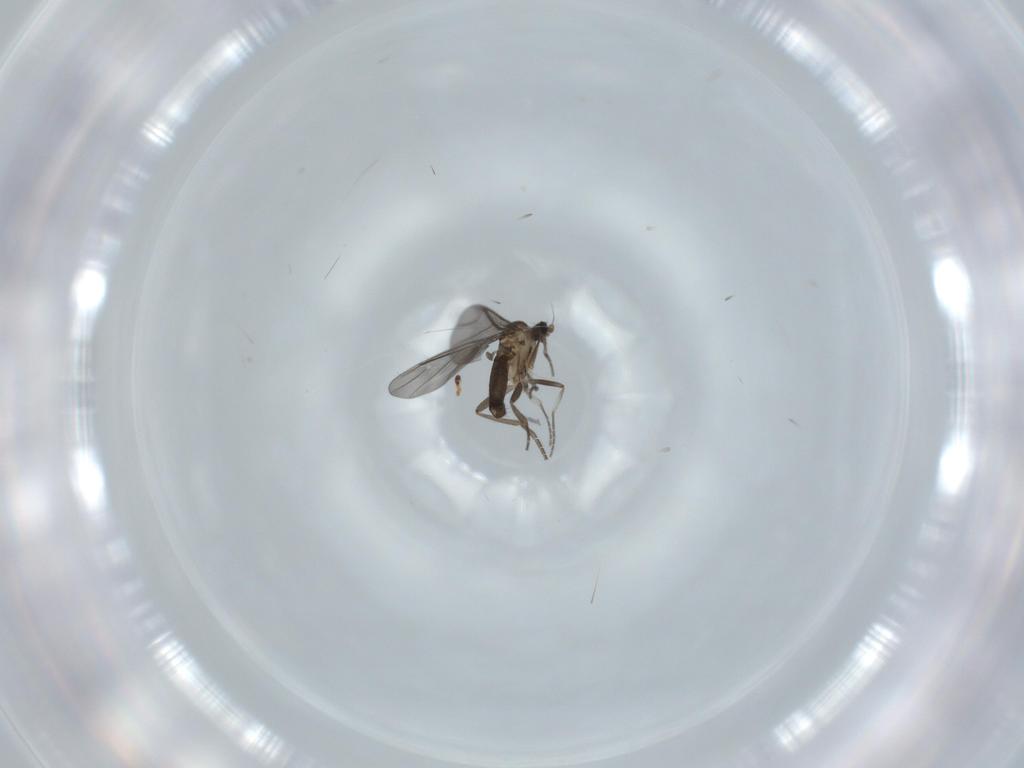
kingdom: Animalia
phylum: Arthropoda
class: Insecta
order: Diptera
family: Phoridae
